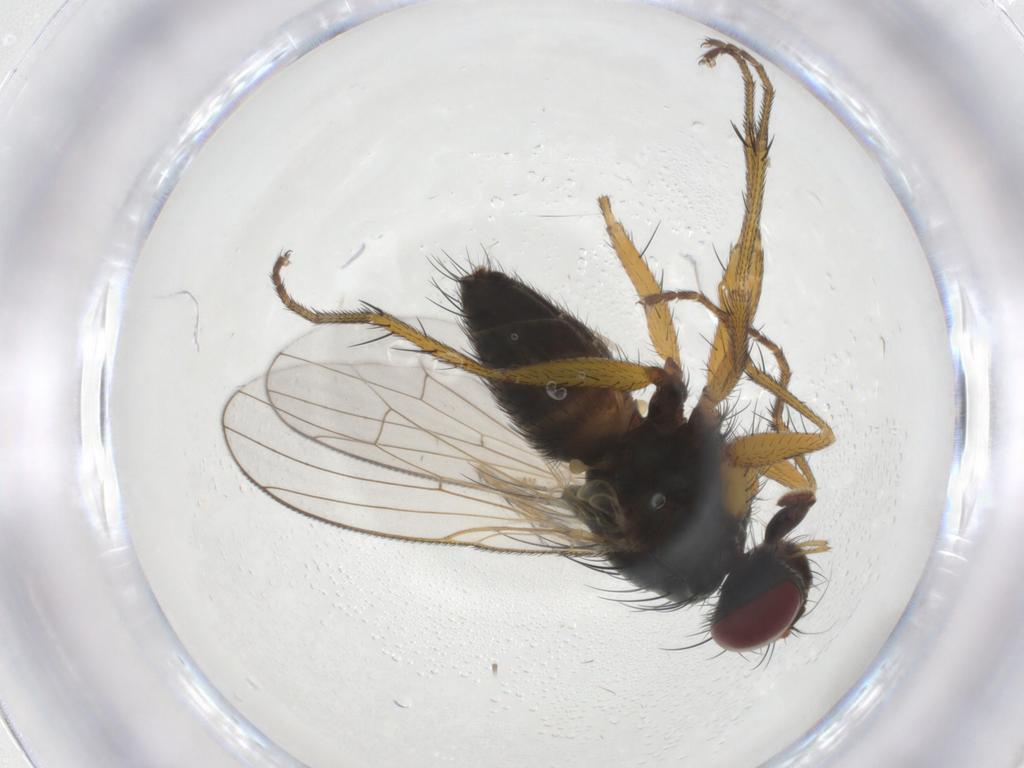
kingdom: Animalia
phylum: Arthropoda
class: Insecta
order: Diptera
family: Muscidae
